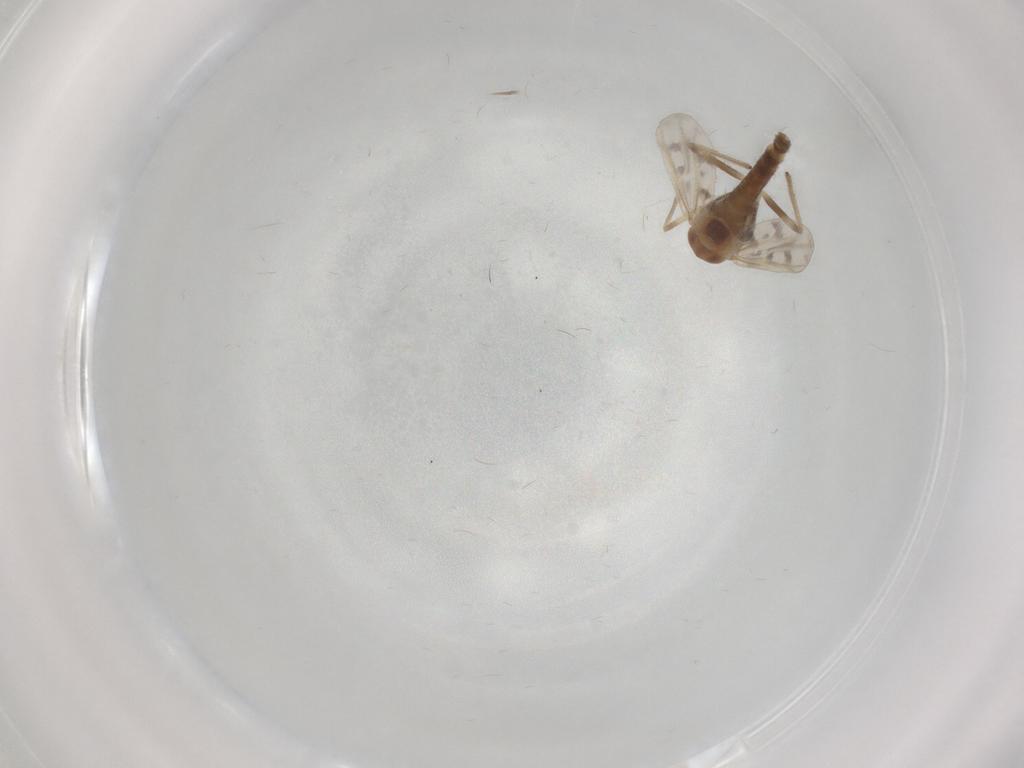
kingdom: Animalia
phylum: Arthropoda
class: Insecta
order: Diptera
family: Chironomidae
